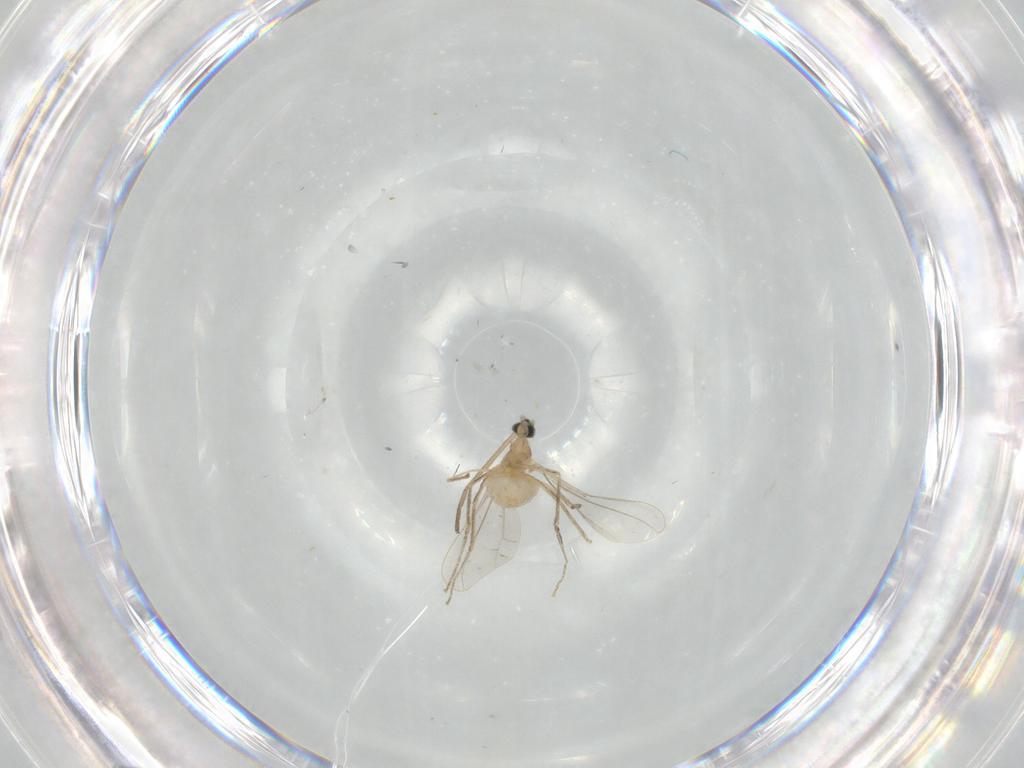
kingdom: Animalia
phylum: Arthropoda
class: Insecta
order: Diptera
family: Cecidomyiidae
